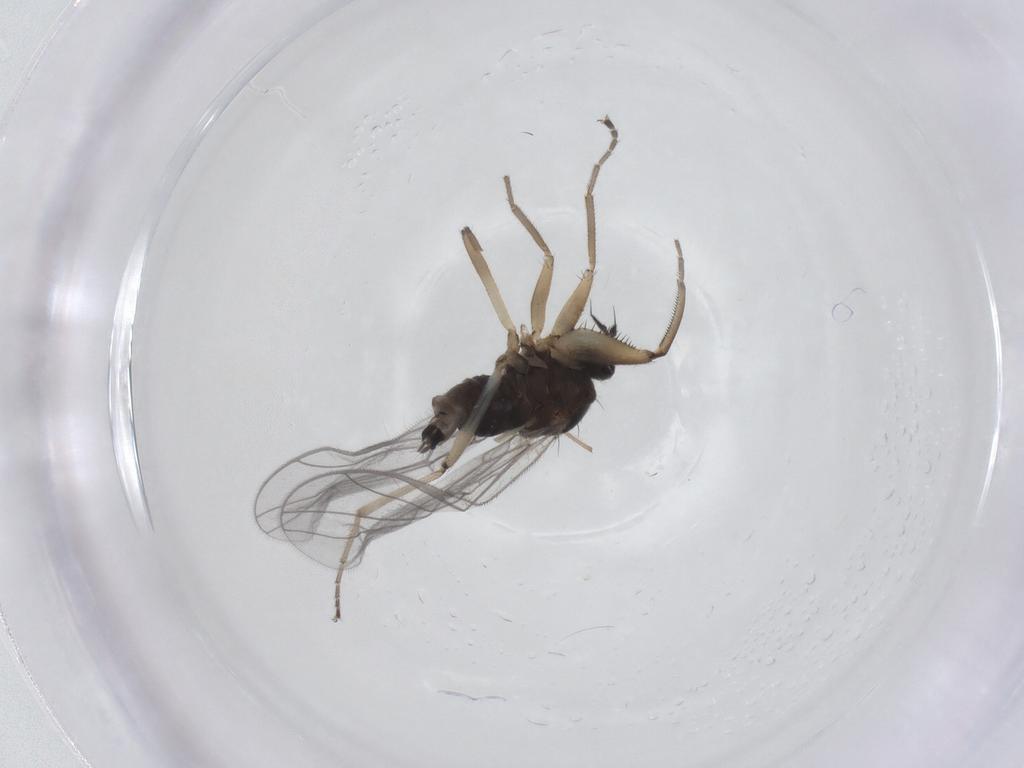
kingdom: Animalia
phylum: Arthropoda
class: Insecta
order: Diptera
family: Hybotidae
